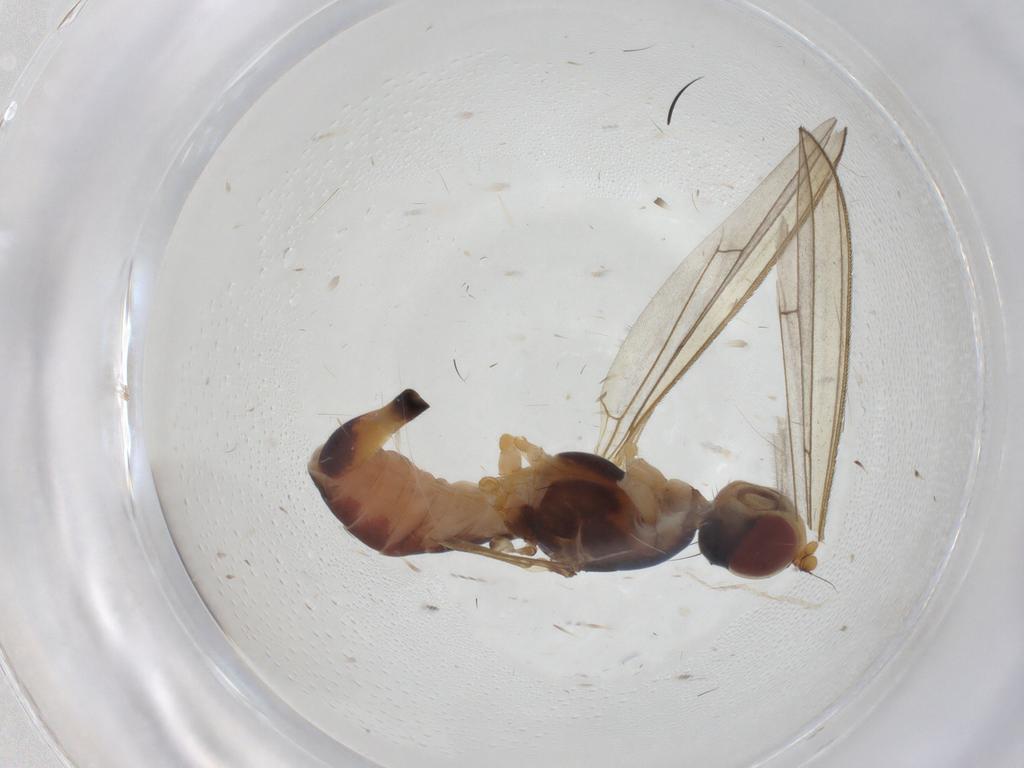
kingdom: Animalia
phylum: Arthropoda
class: Insecta
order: Diptera
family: Micropezidae
